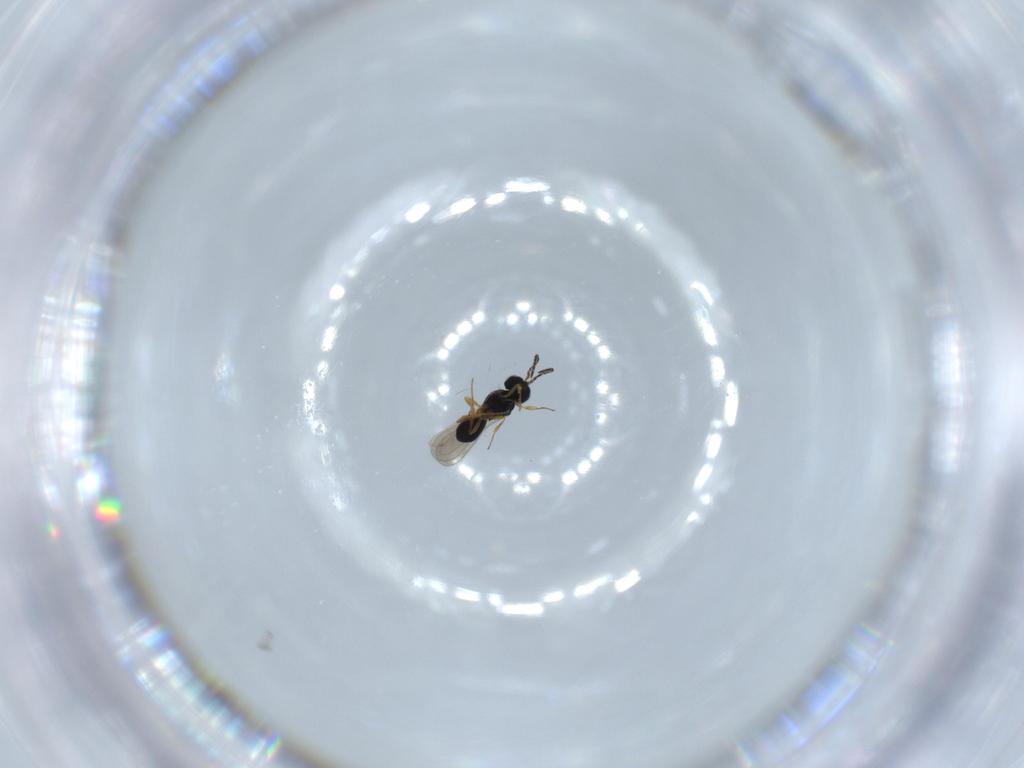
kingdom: Animalia
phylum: Arthropoda
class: Insecta
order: Hymenoptera
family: Scelionidae
